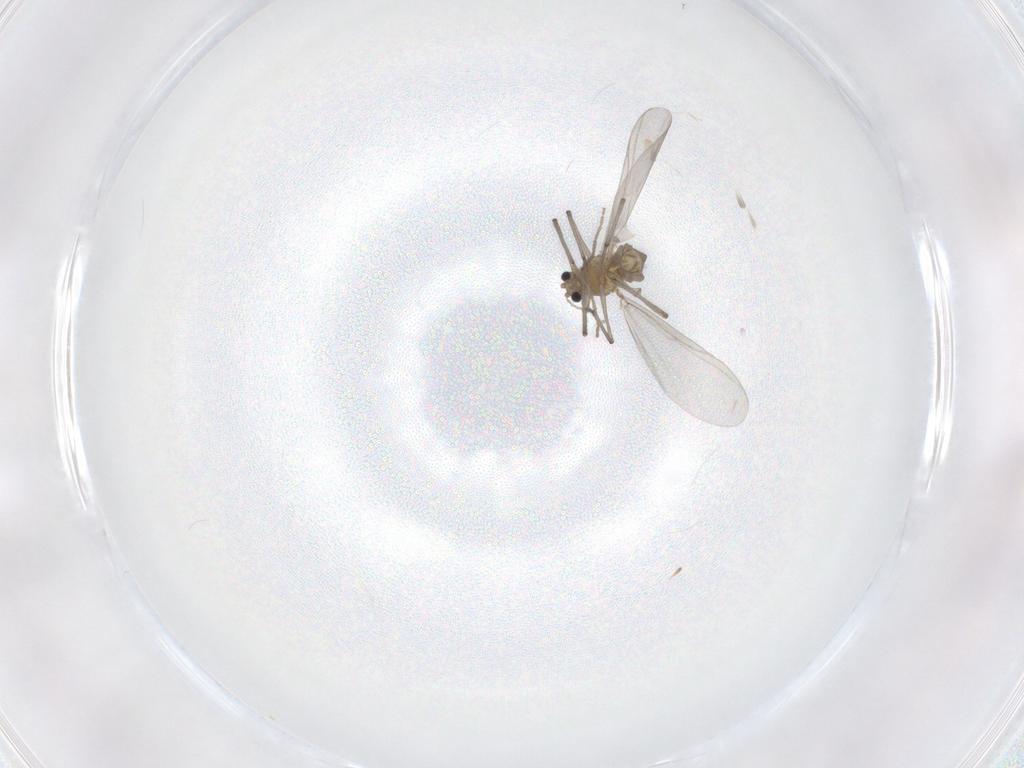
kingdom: Animalia
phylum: Arthropoda
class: Insecta
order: Diptera
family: Chironomidae
